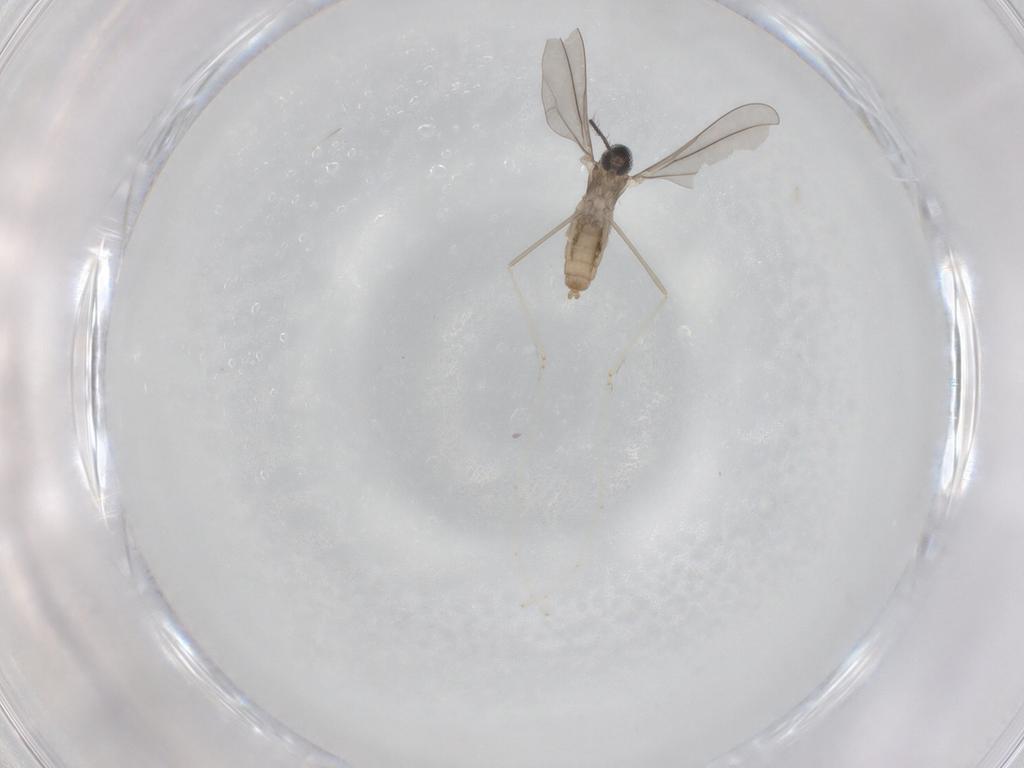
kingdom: Animalia
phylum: Arthropoda
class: Insecta
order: Diptera
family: Cecidomyiidae
